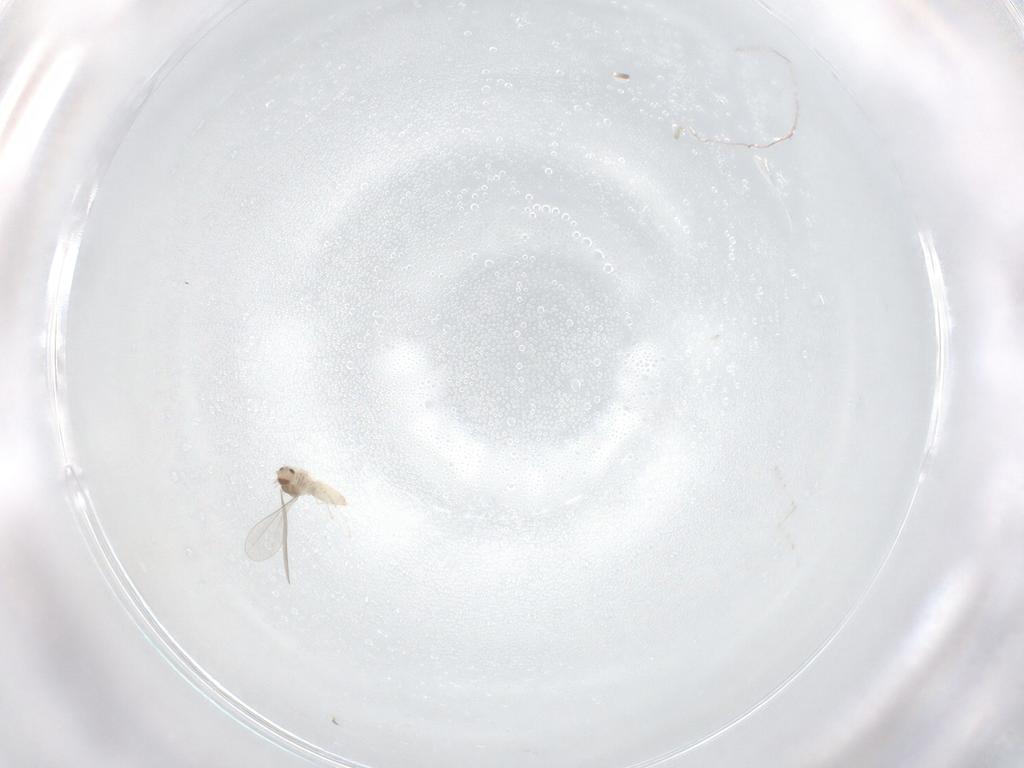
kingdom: Animalia
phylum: Arthropoda
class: Insecta
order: Diptera
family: Cecidomyiidae
